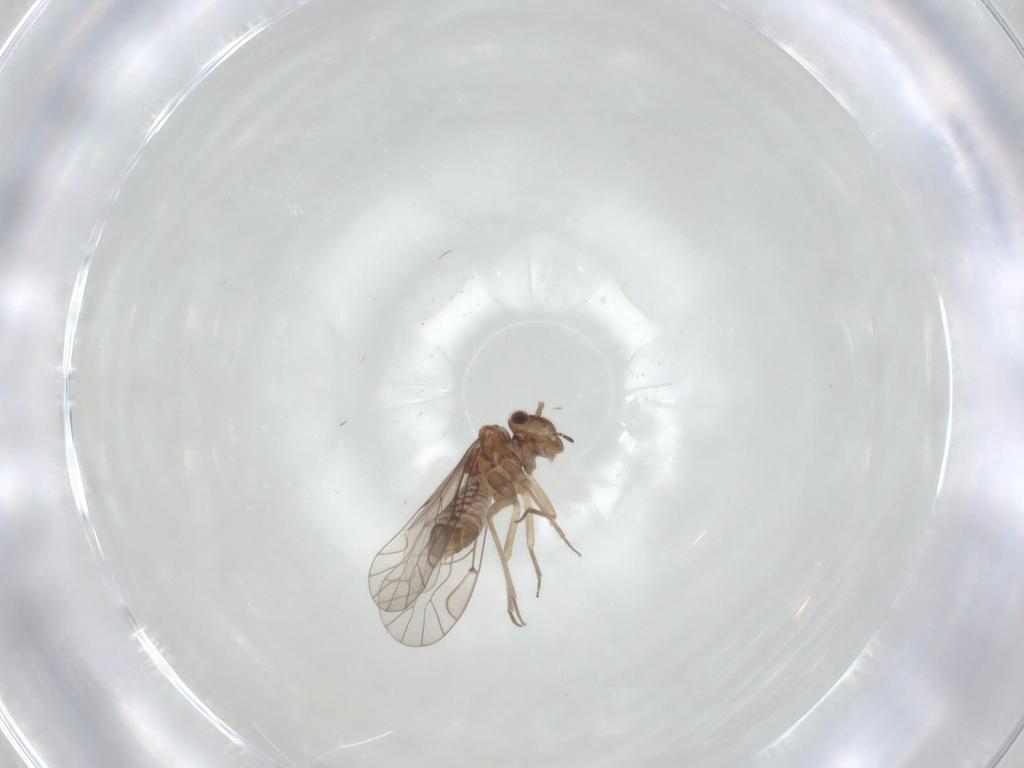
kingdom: Animalia
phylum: Arthropoda
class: Insecta
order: Psocodea
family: Lachesillidae
